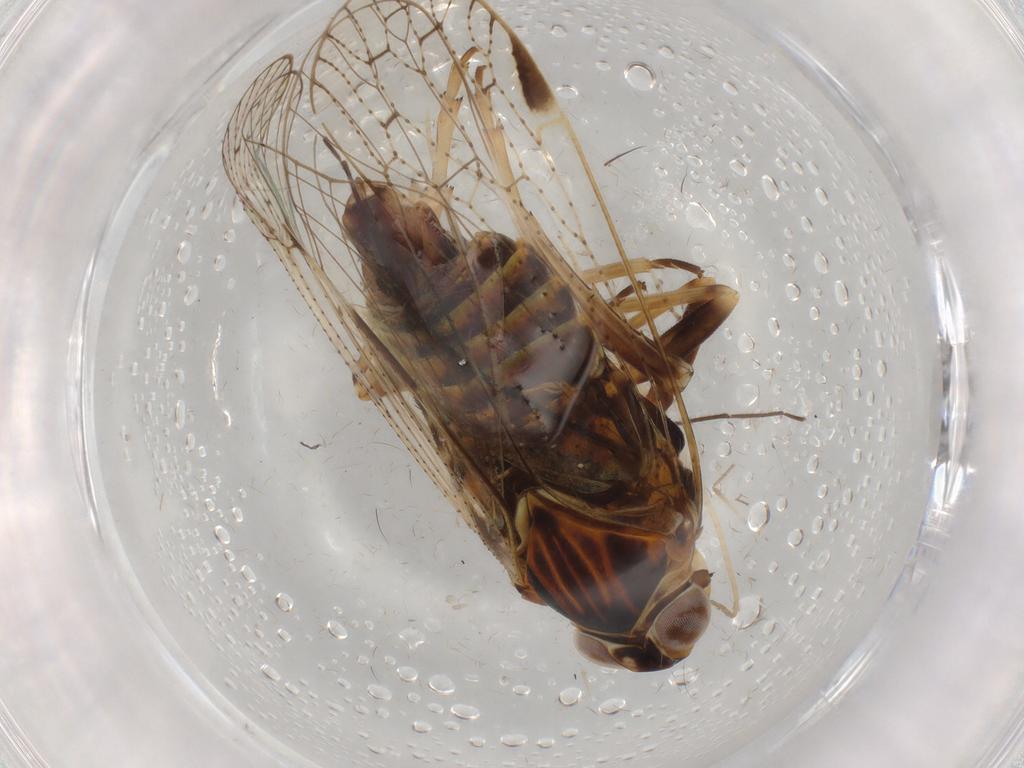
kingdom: Animalia
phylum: Arthropoda
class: Insecta
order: Hemiptera
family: Cixiidae
